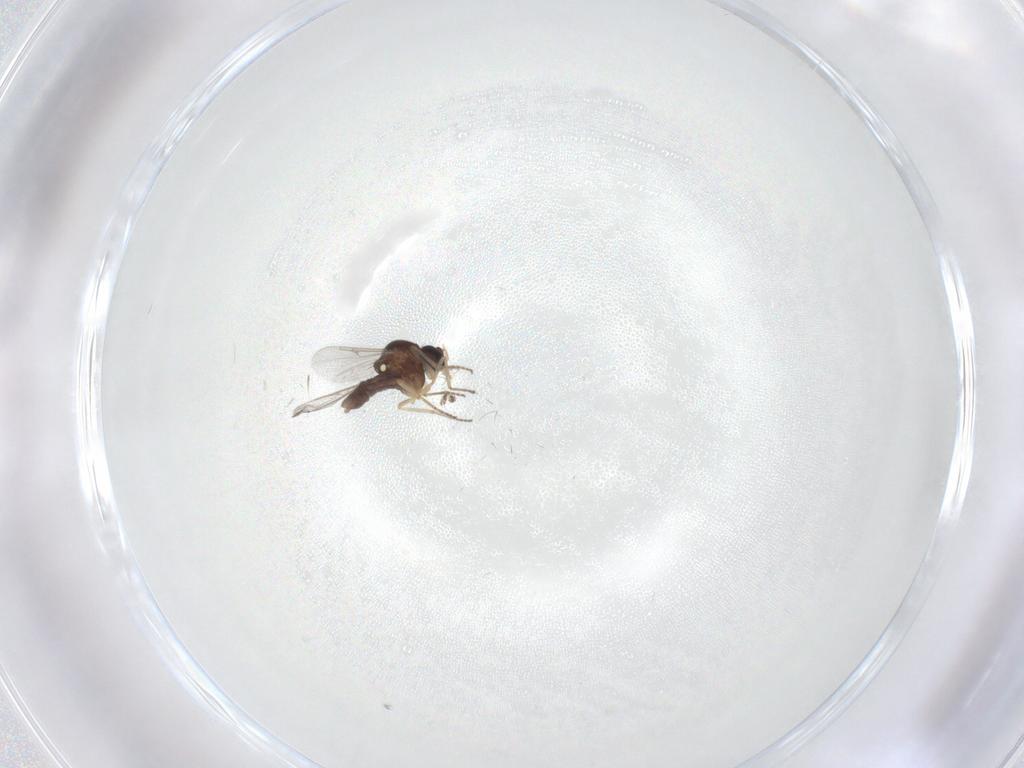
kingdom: Animalia
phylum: Arthropoda
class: Insecta
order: Diptera
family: Ceratopogonidae
